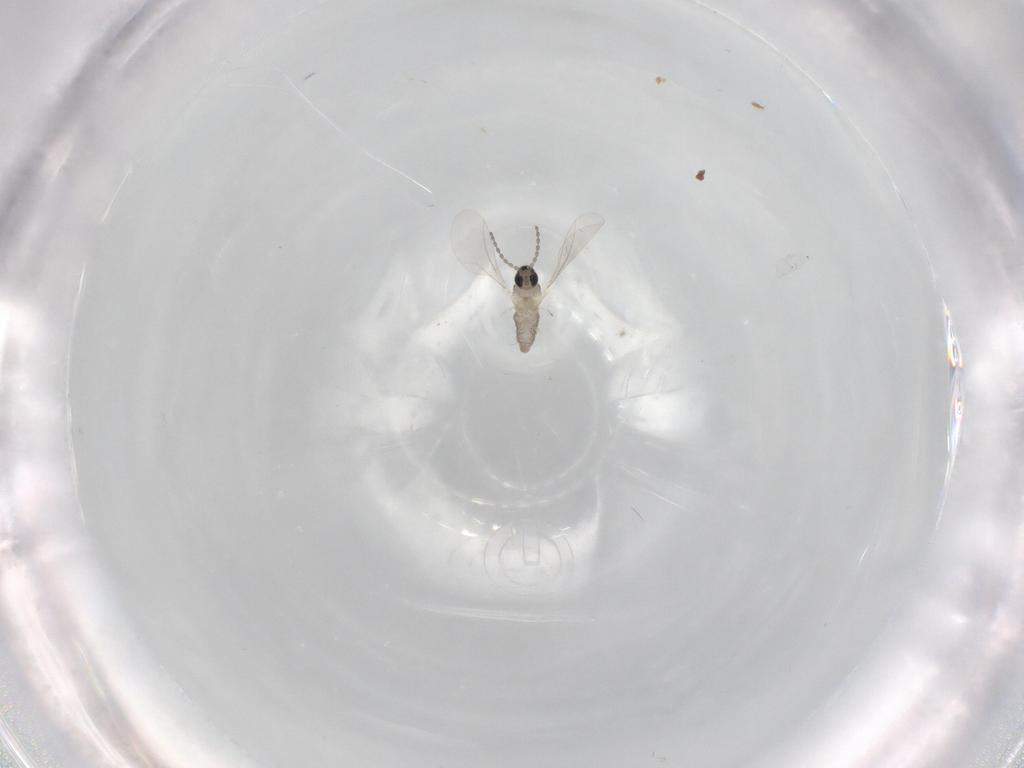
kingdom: Animalia
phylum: Arthropoda
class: Insecta
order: Diptera
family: Cecidomyiidae
